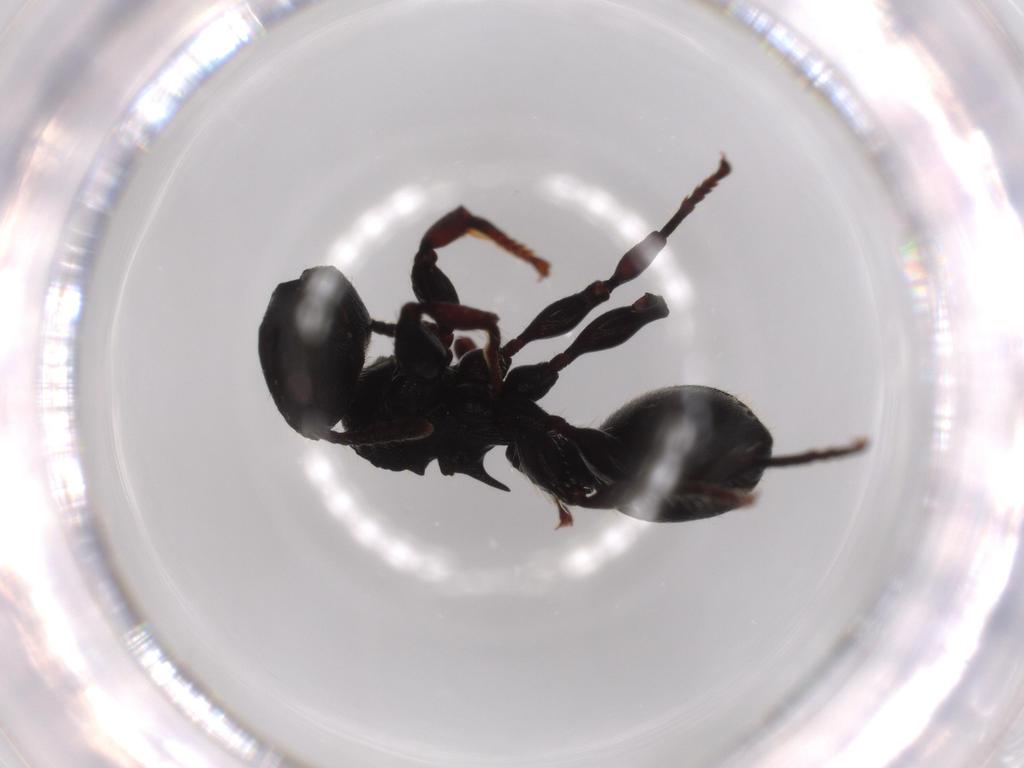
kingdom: Animalia
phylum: Arthropoda
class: Insecta
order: Hymenoptera
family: Formicidae
